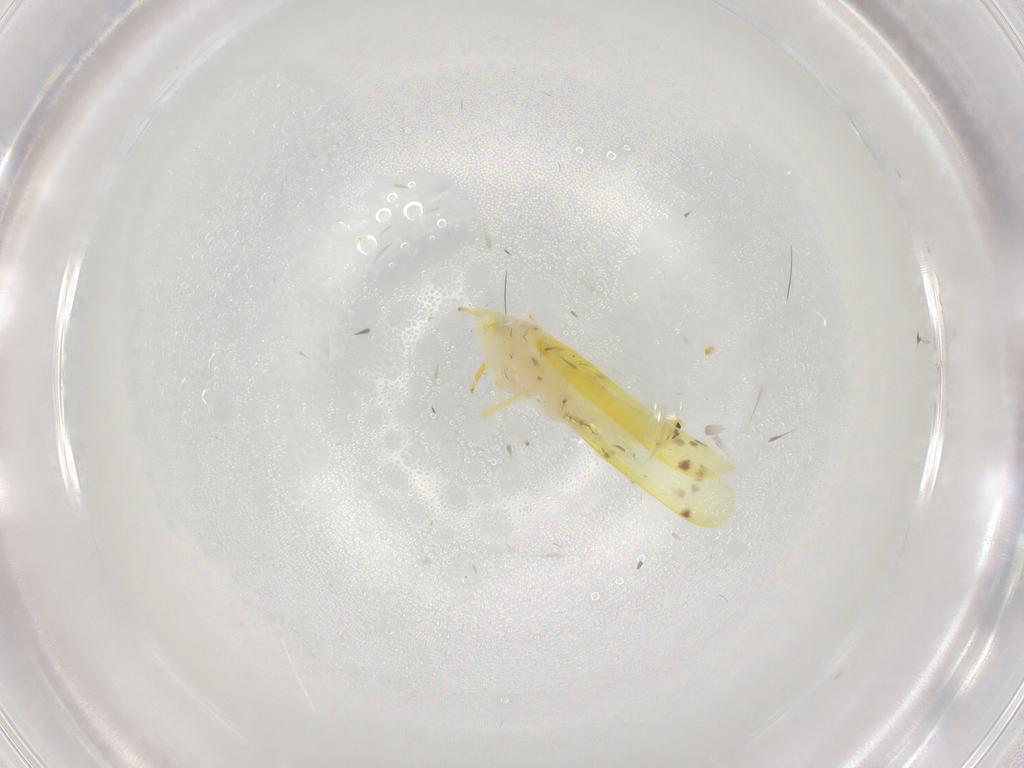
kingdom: Animalia
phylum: Arthropoda
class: Insecta
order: Hemiptera
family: Cicadellidae
